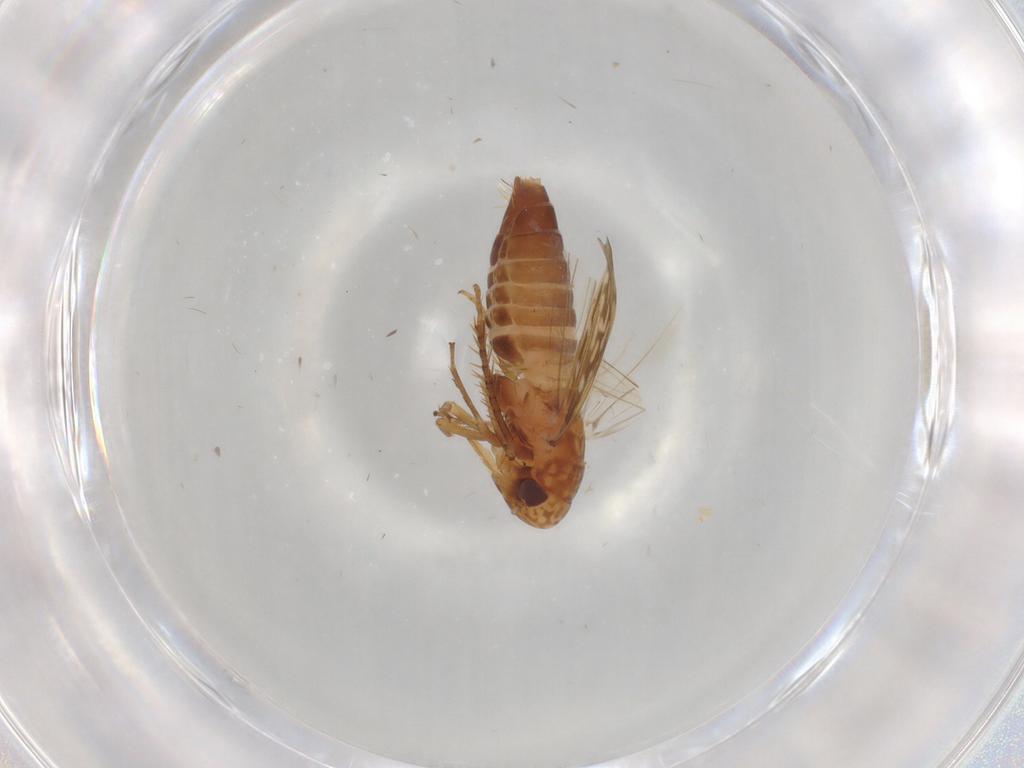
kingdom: Animalia
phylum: Arthropoda
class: Insecta
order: Hemiptera
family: Cicadellidae
